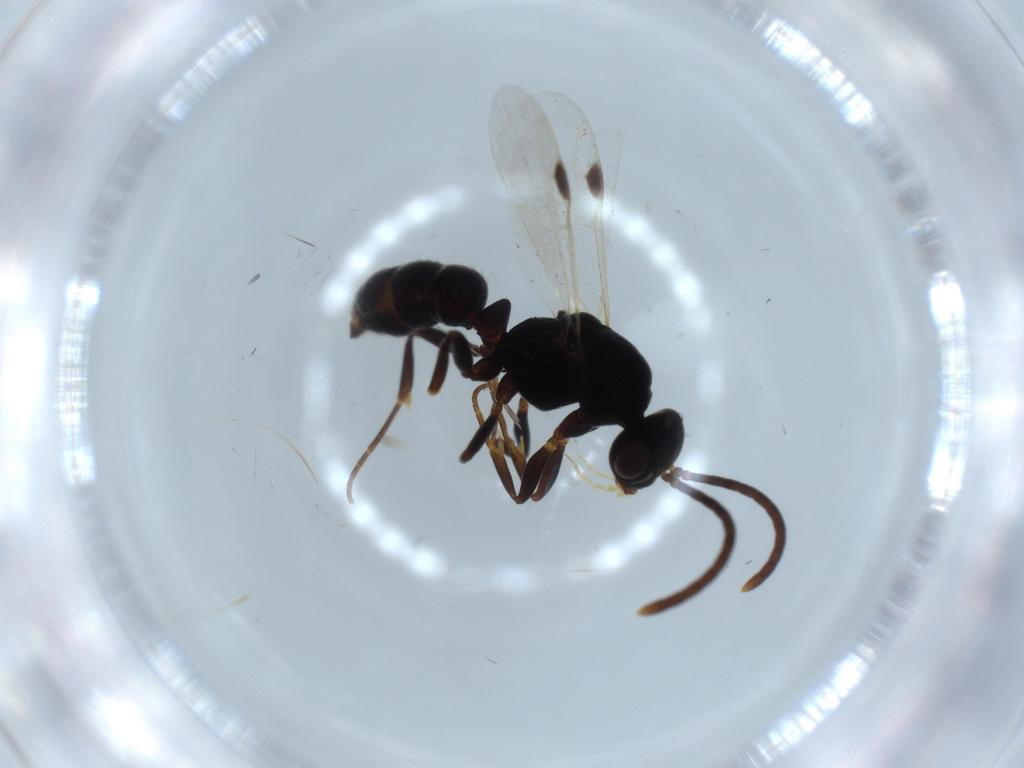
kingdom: Animalia
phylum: Arthropoda
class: Insecta
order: Hymenoptera
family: Formicidae
